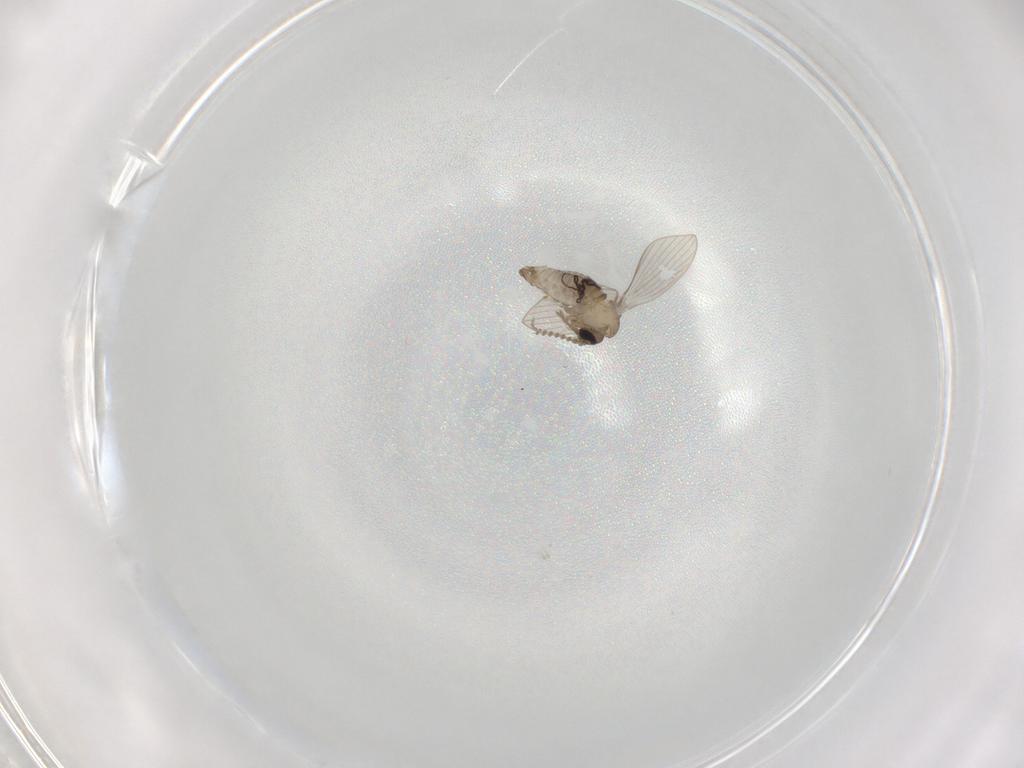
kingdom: Animalia
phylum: Arthropoda
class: Insecta
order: Diptera
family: Psychodidae
